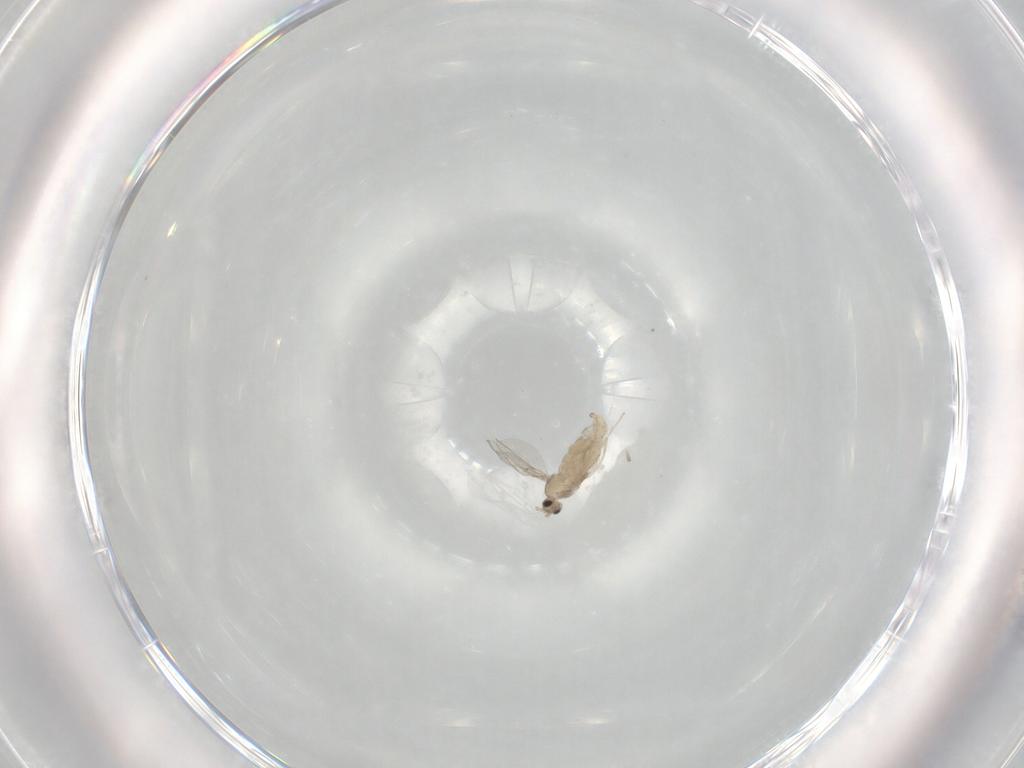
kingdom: Animalia
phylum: Arthropoda
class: Insecta
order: Diptera
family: Cecidomyiidae
